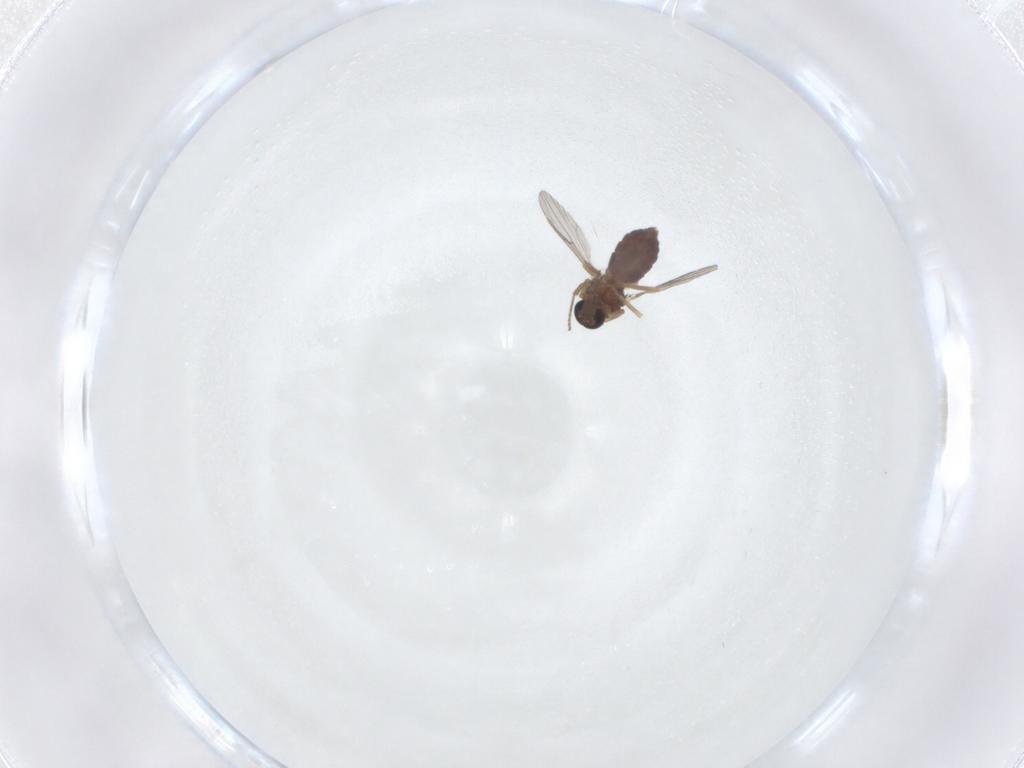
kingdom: Animalia
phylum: Arthropoda
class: Insecta
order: Diptera
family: Ceratopogonidae
